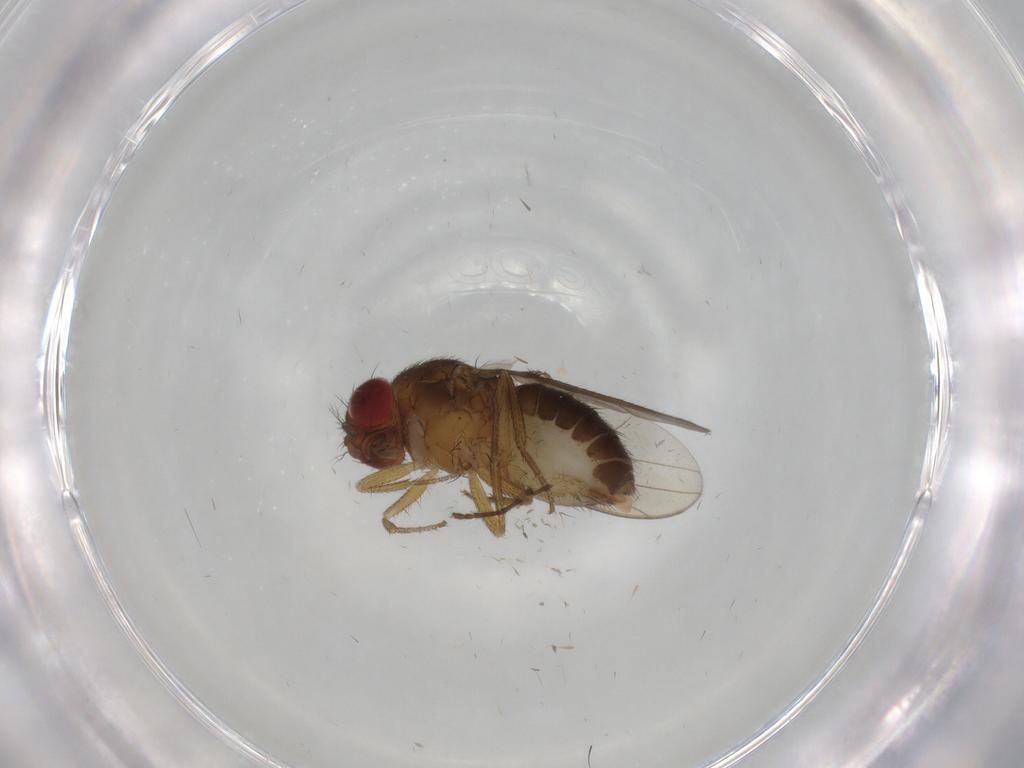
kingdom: Animalia
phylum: Arthropoda
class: Insecta
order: Diptera
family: Drosophilidae
